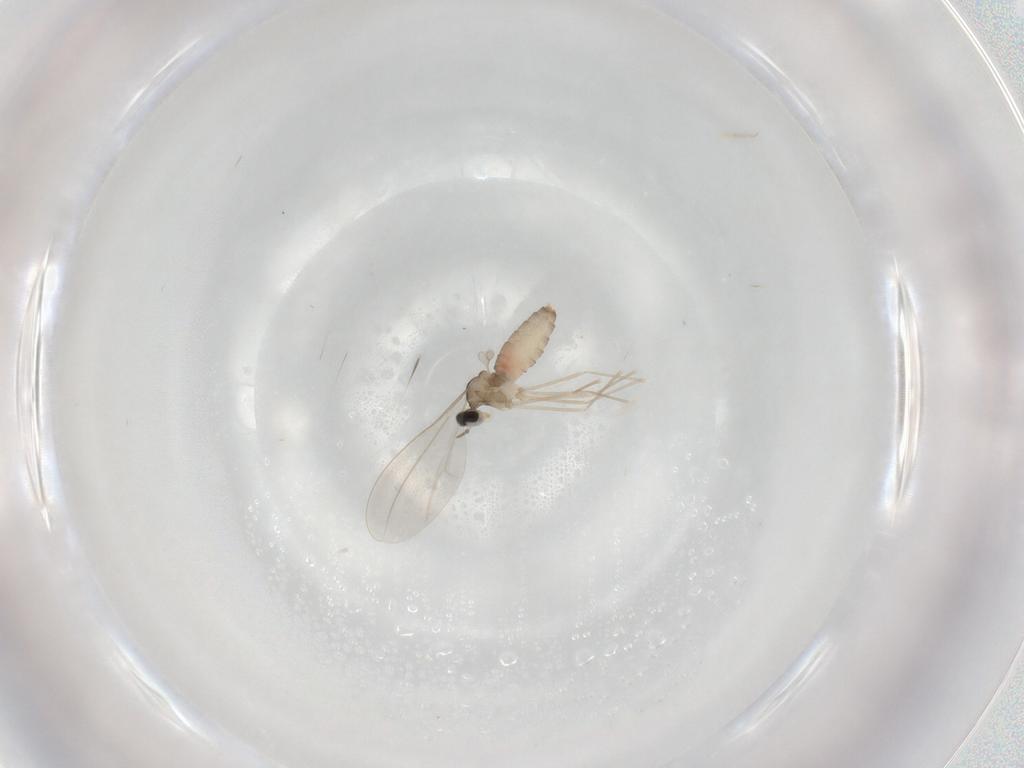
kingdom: Animalia
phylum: Arthropoda
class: Insecta
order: Diptera
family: Cecidomyiidae
